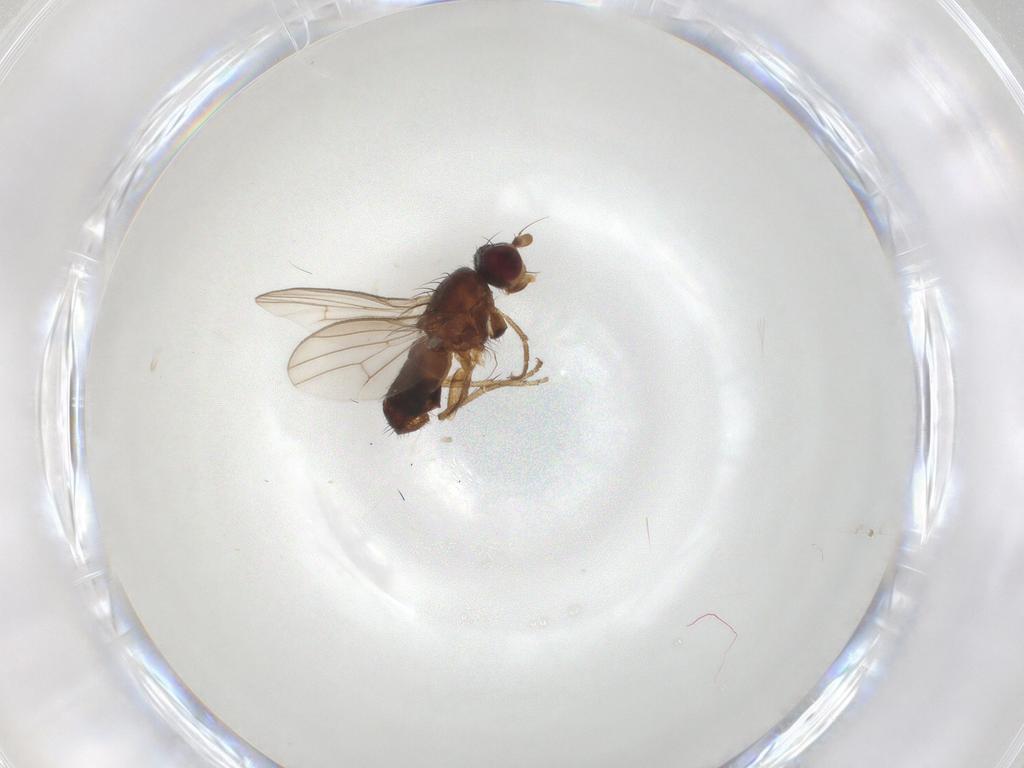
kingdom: Animalia
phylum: Arthropoda
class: Insecta
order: Diptera
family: Heleomyzidae
